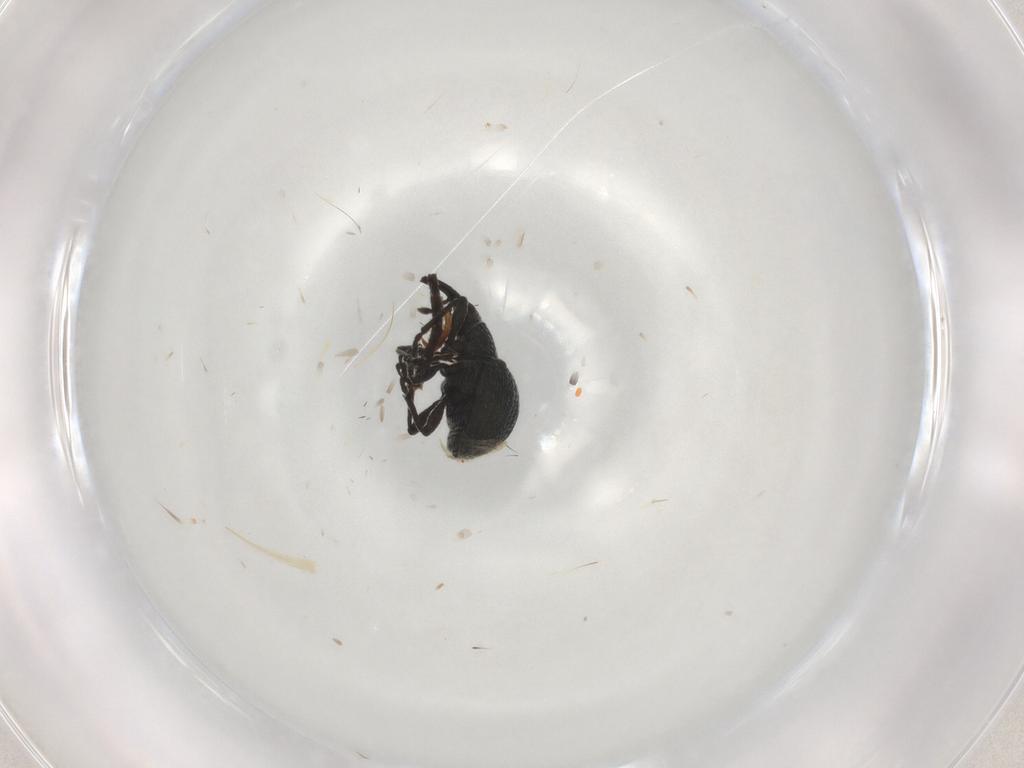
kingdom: Animalia
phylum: Arthropoda
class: Insecta
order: Coleoptera
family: Brentidae
